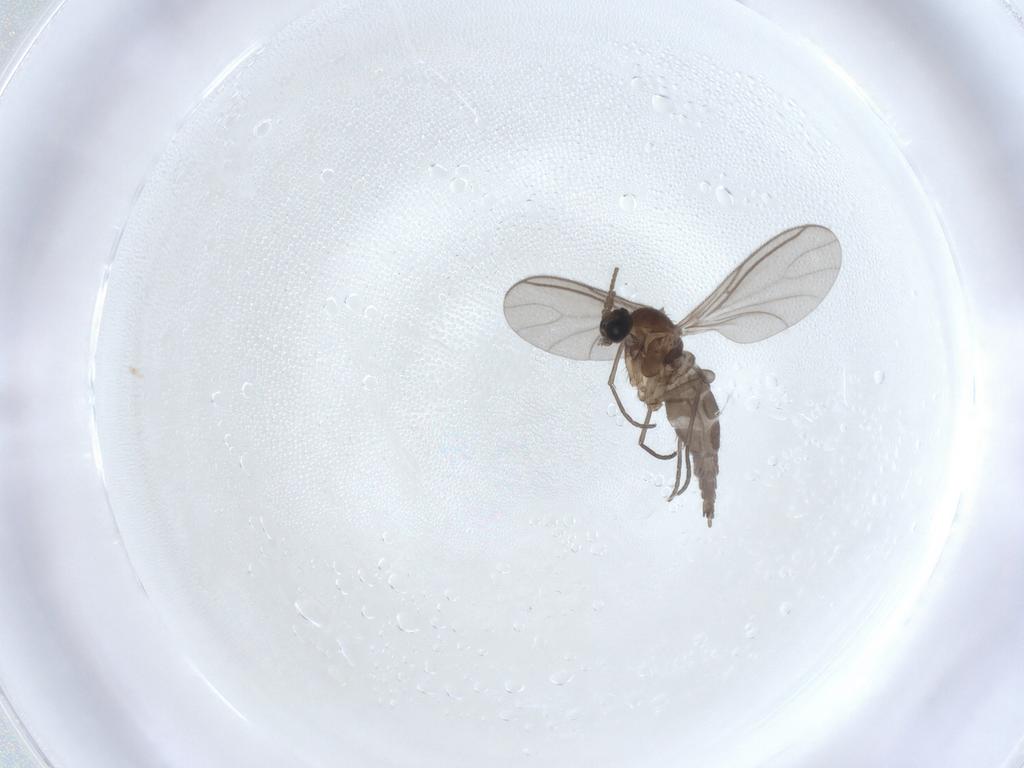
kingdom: Animalia
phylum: Arthropoda
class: Insecta
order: Diptera
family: Sciaridae
